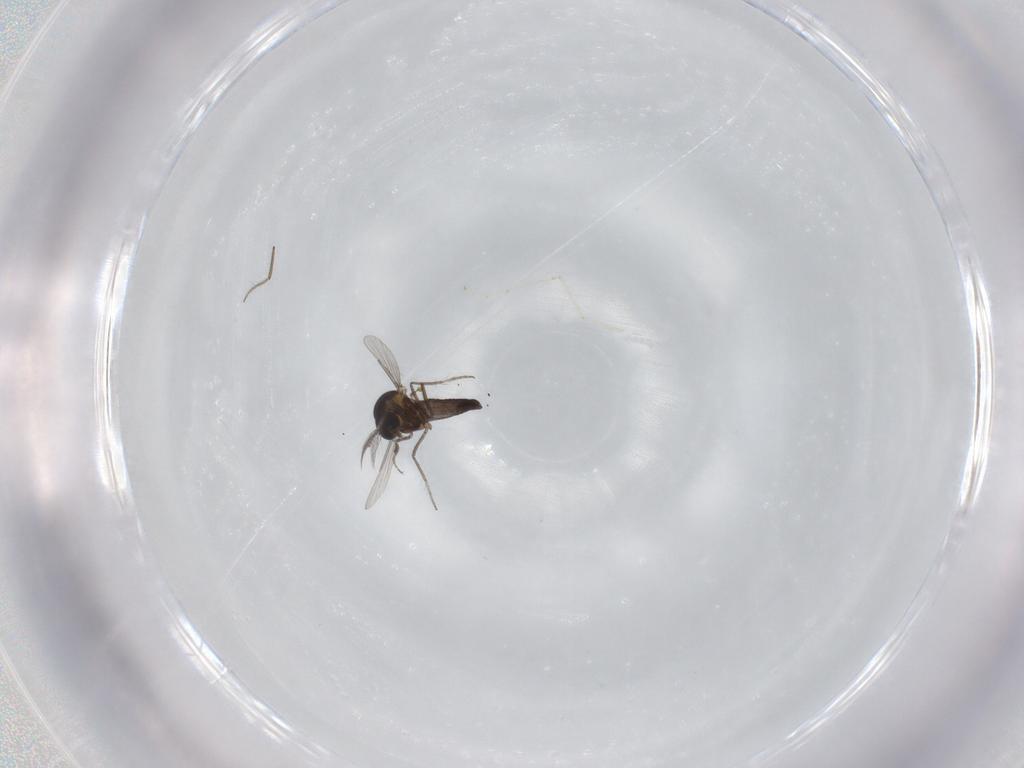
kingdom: Animalia
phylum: Arthropoda
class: Insecta
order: Diptera
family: Ceratopogonidae
